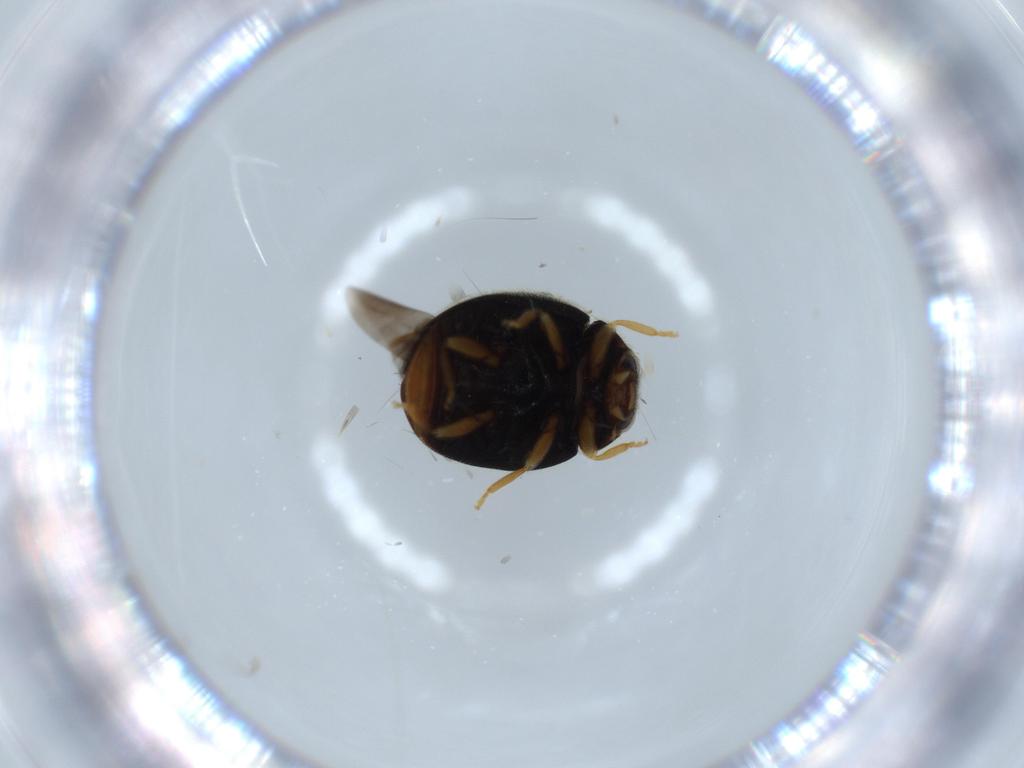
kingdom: Animalia
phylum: Arthropoda
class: Insecta
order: Coleoptera
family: Coccinellidae
